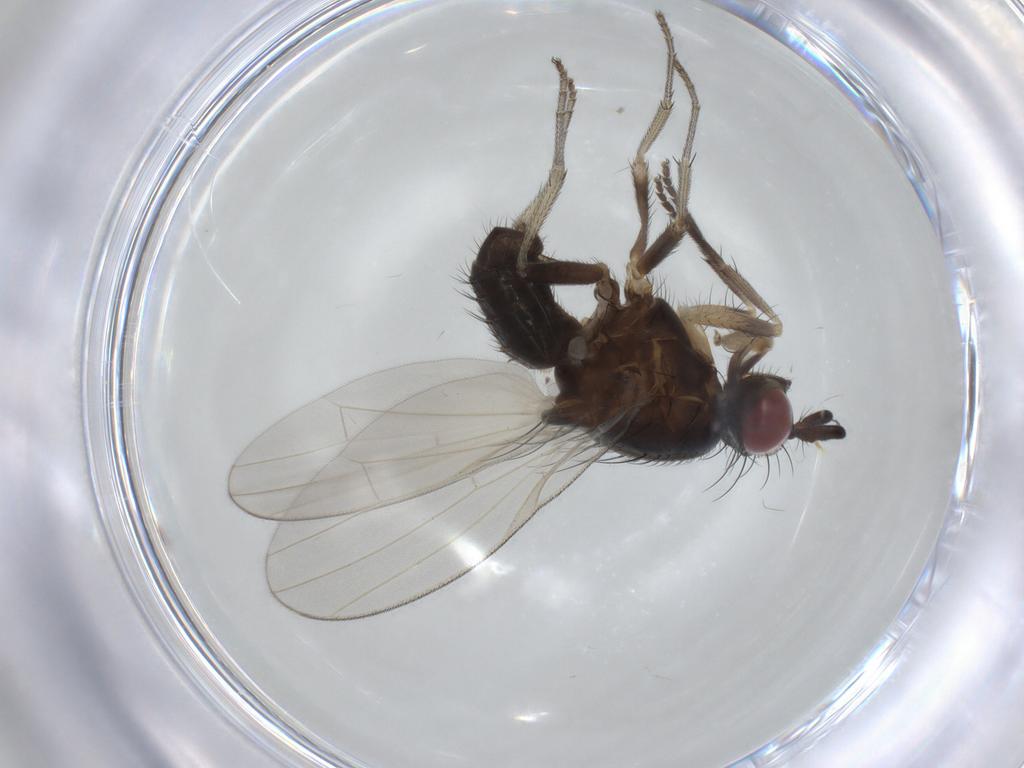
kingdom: Animalia
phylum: Arthropoda
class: Insecta
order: Diptera
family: Lauxaniidae
